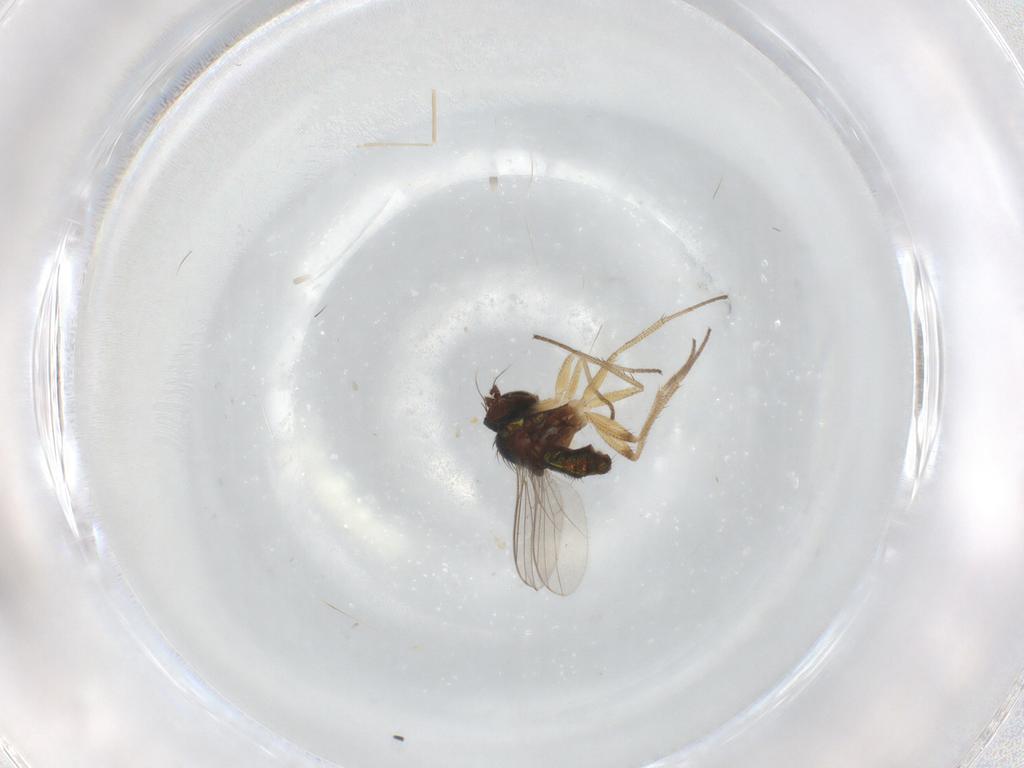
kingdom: Animalia
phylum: Arthropoda
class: Insecta
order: Diptera
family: Cecidomyiidae
